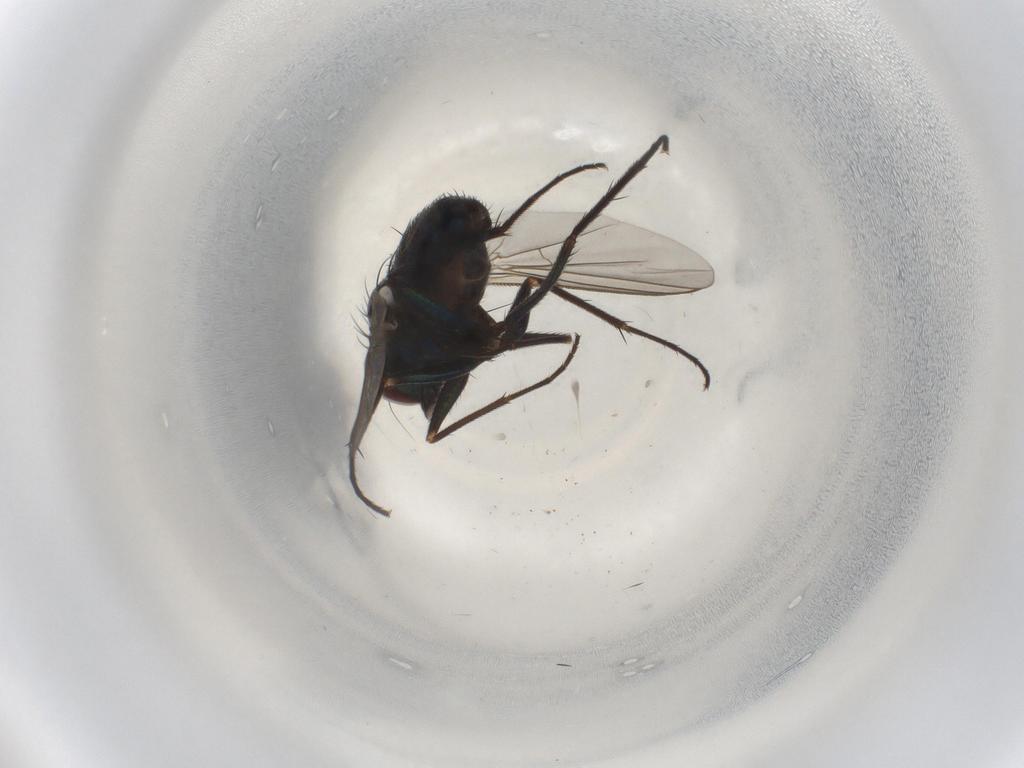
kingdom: Animalia
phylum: Arthropoda
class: Insecta
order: Diptera
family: Dolichopodidae
